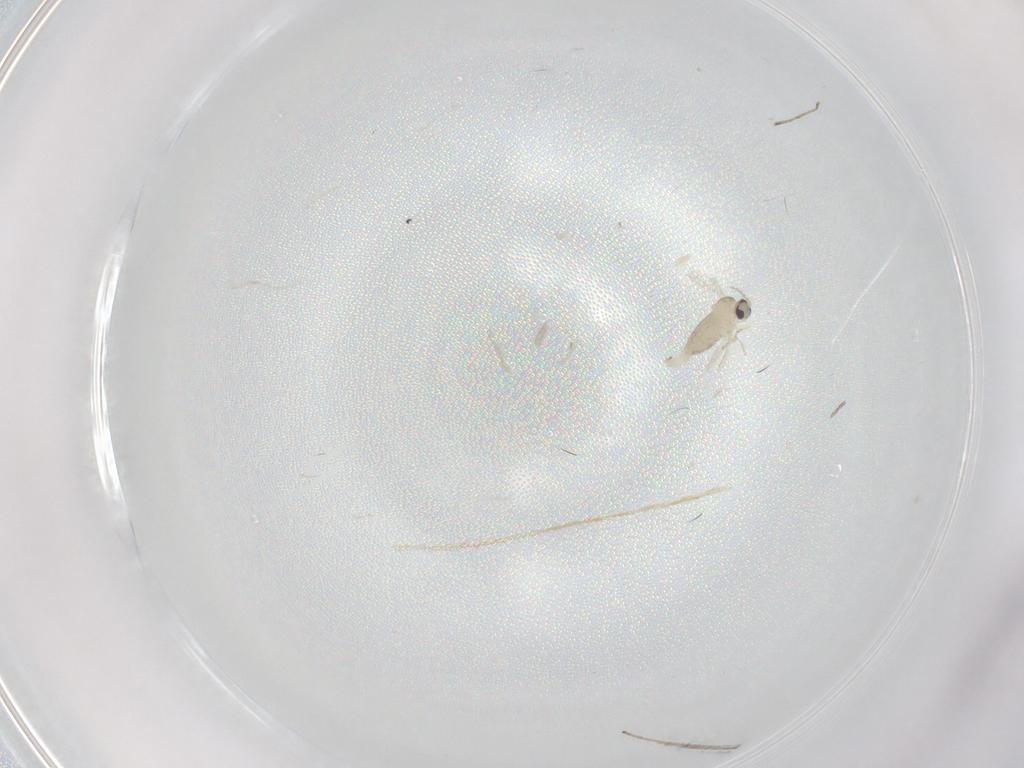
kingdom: Animalia
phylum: Arthropoda
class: Insecta
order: Diptera
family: Cecidomyiidae
